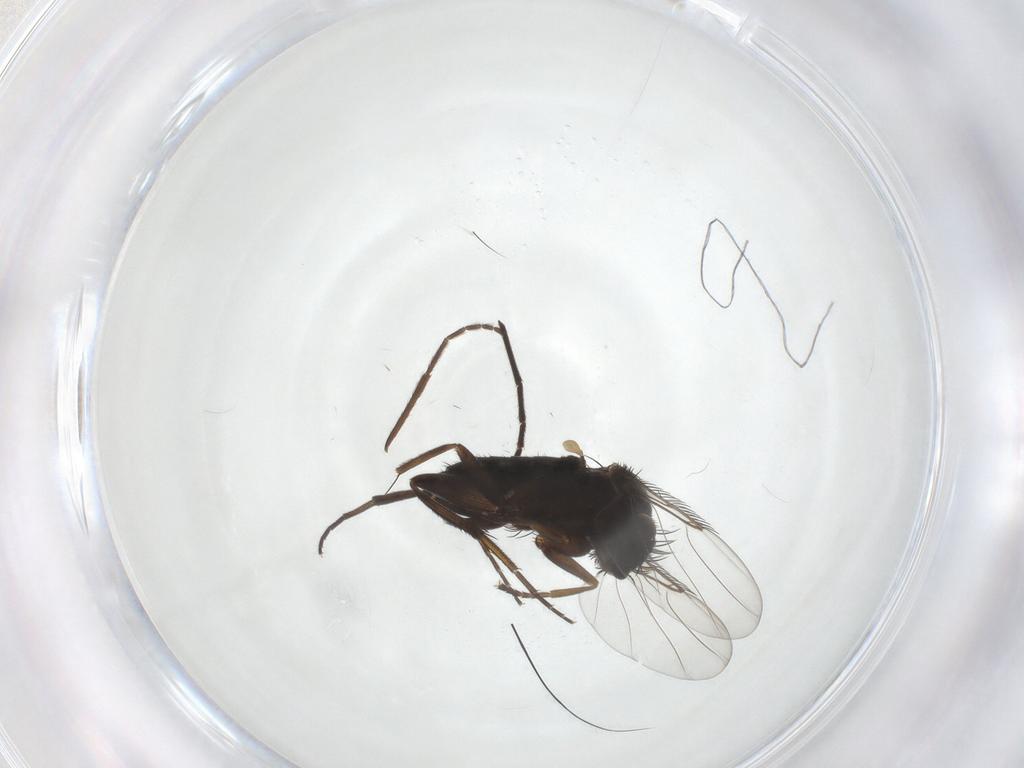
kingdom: Animalia
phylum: Arthropoda
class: Insecta
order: Diptera
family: Phoridae
